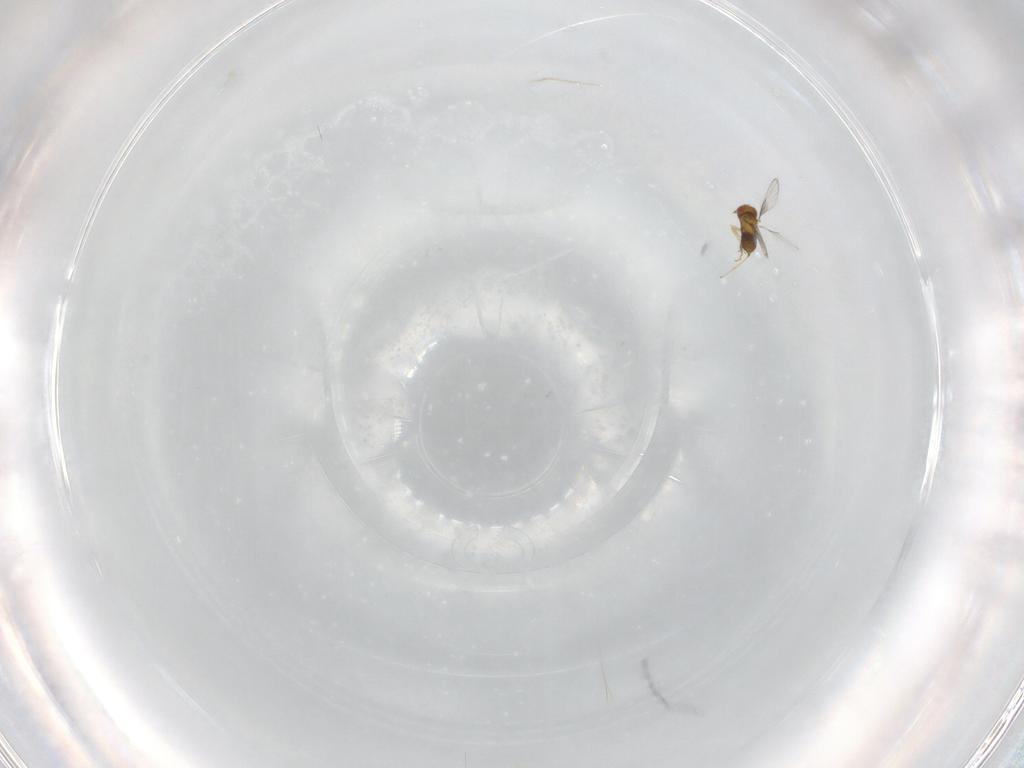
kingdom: Animalia
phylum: Arthropoda
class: Insecta
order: Hymenoptera
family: Trichogrammatidae
